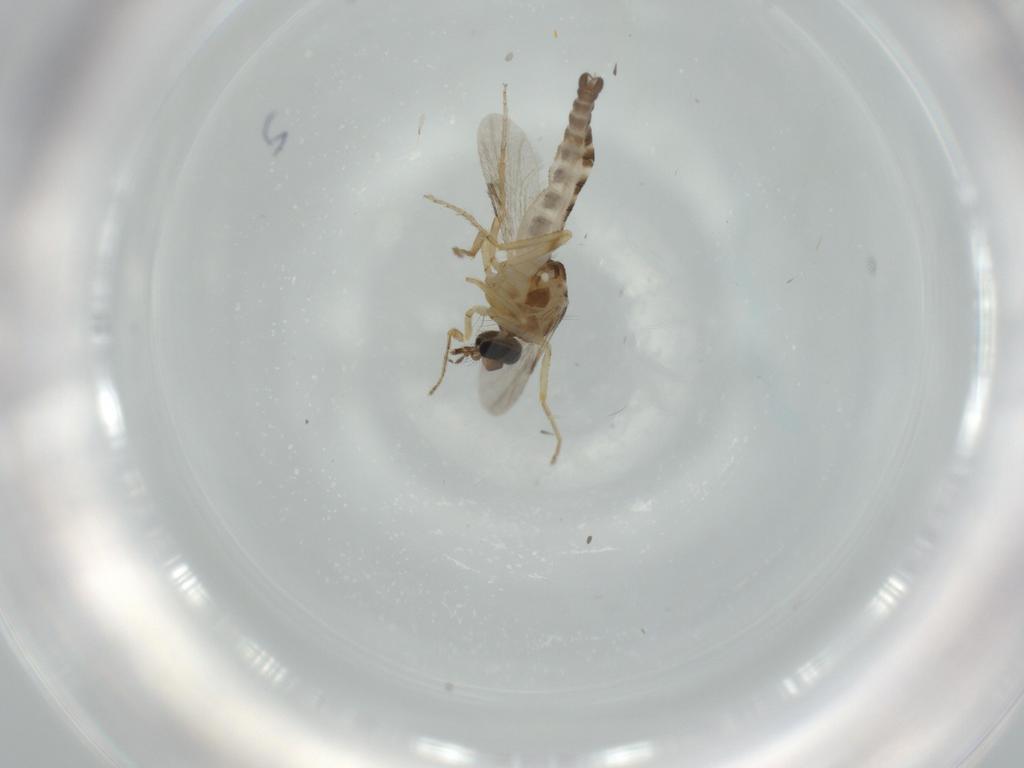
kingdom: Animalia
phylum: Arthropoda
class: Insecta
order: Diptera
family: Ceratopogonidae
